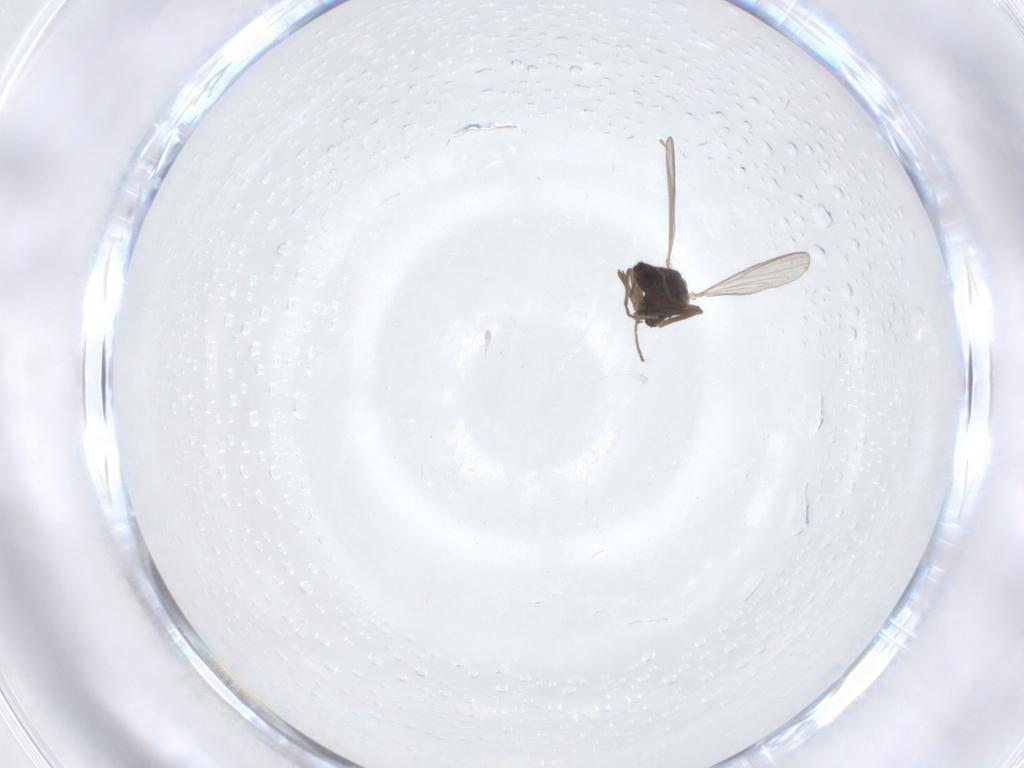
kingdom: Animalia
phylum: Arthropoda
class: Insecta
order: Diptera
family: Chironomidae
